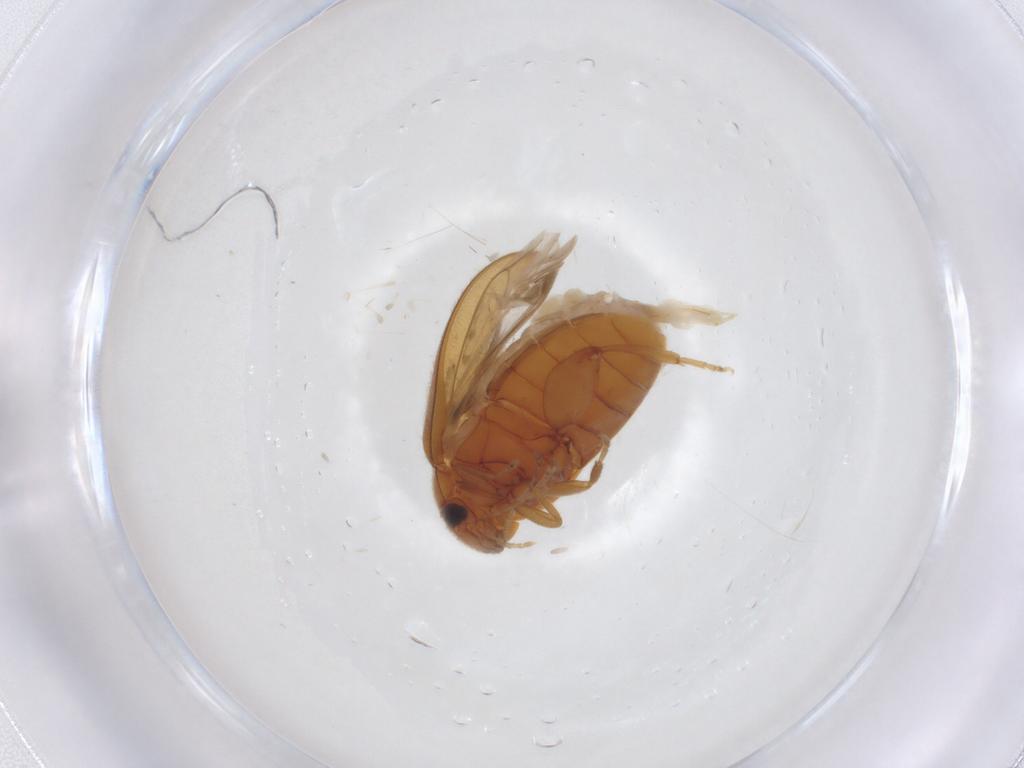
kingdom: Animalia
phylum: Arthropoda
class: Insecta
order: Coleoptera
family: Scirtidae
